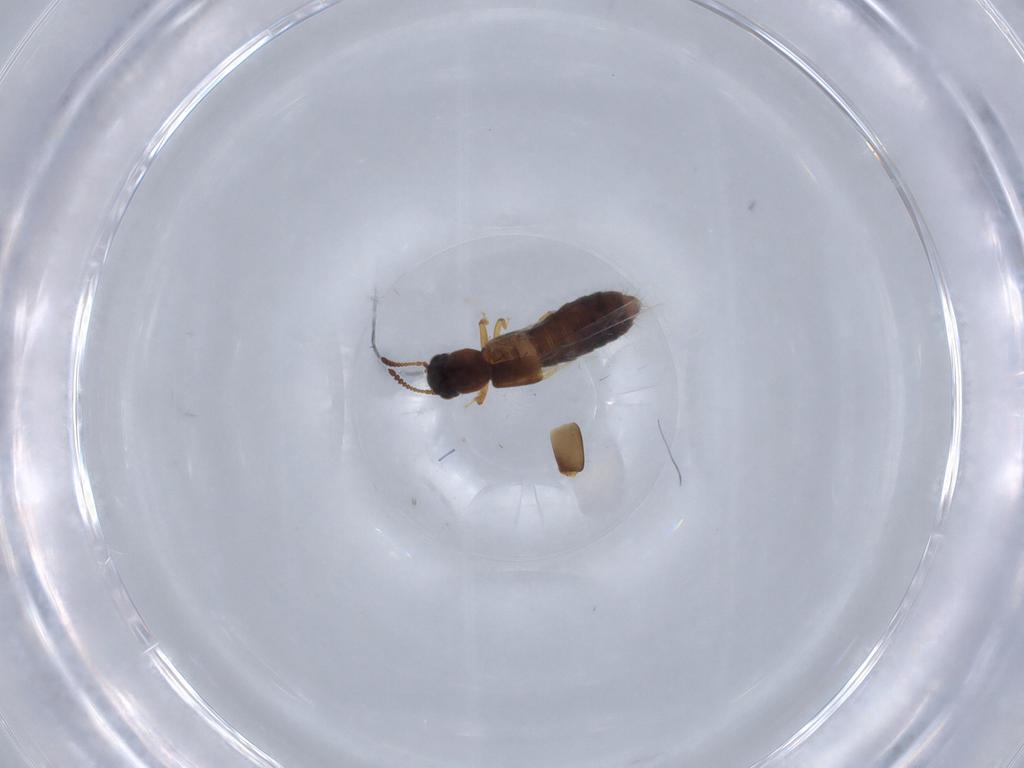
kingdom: Animalia
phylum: Arthropoda
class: Insecta
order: Coleoptera
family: Staphylinidae
